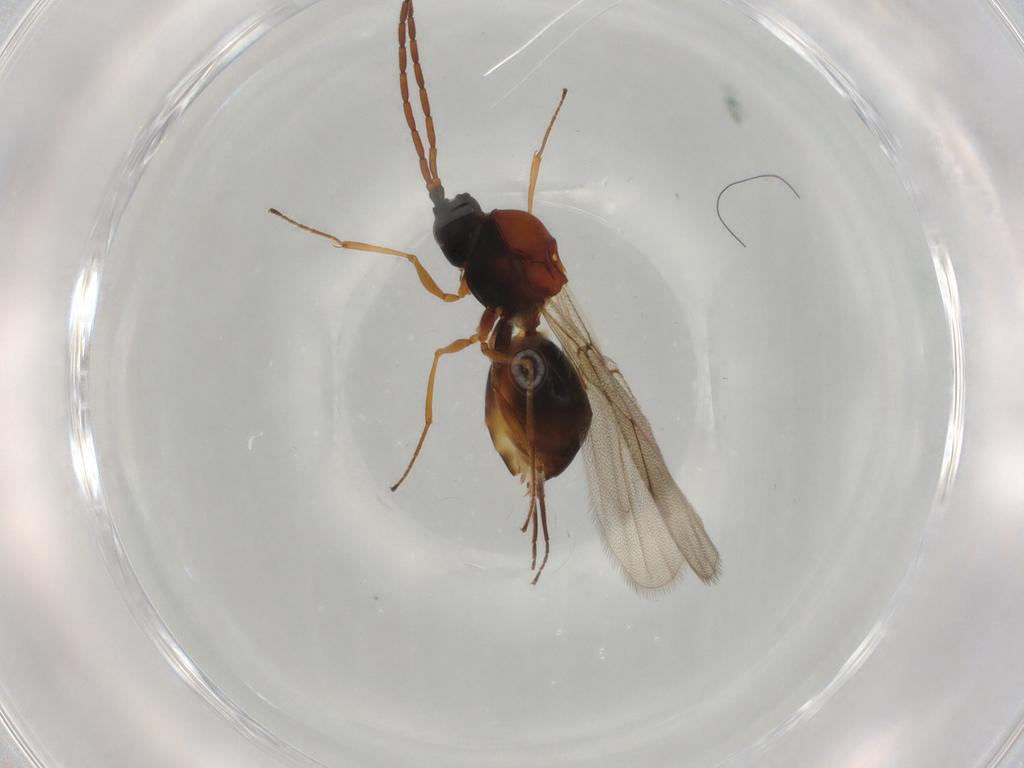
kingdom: Animalia
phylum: Arthropoda
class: Insecta
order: Hymenoptera
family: Figitidae
